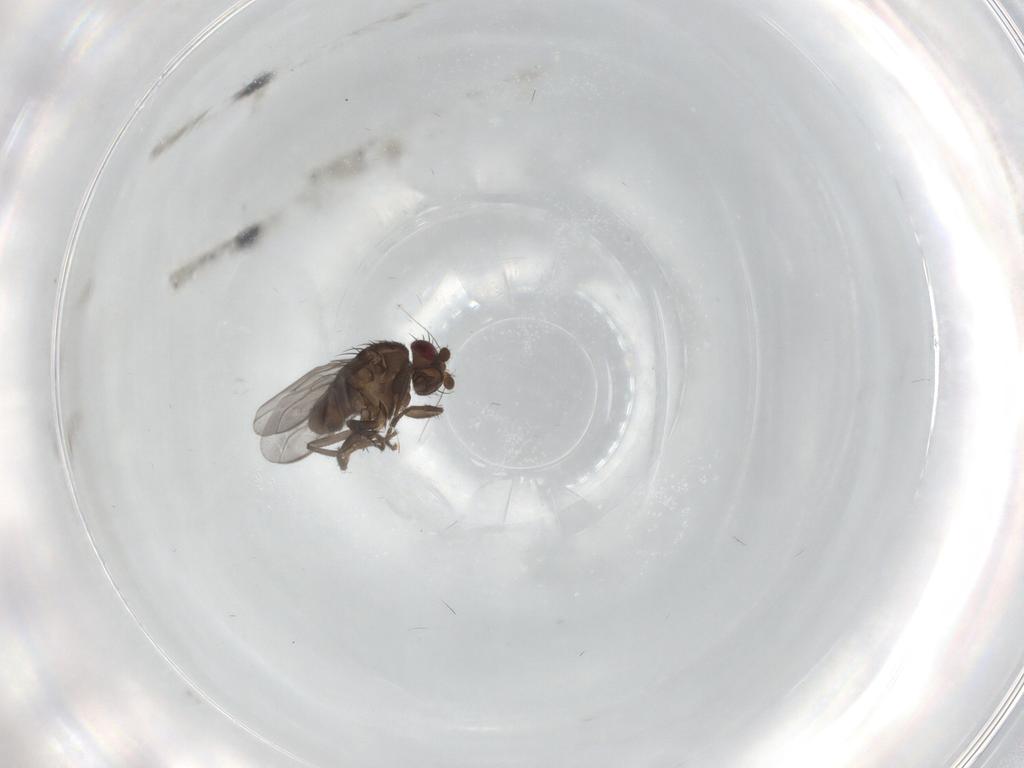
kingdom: Animalia
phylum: Arthropoda
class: Insecta
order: Diptera
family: Sphaeroceridae
